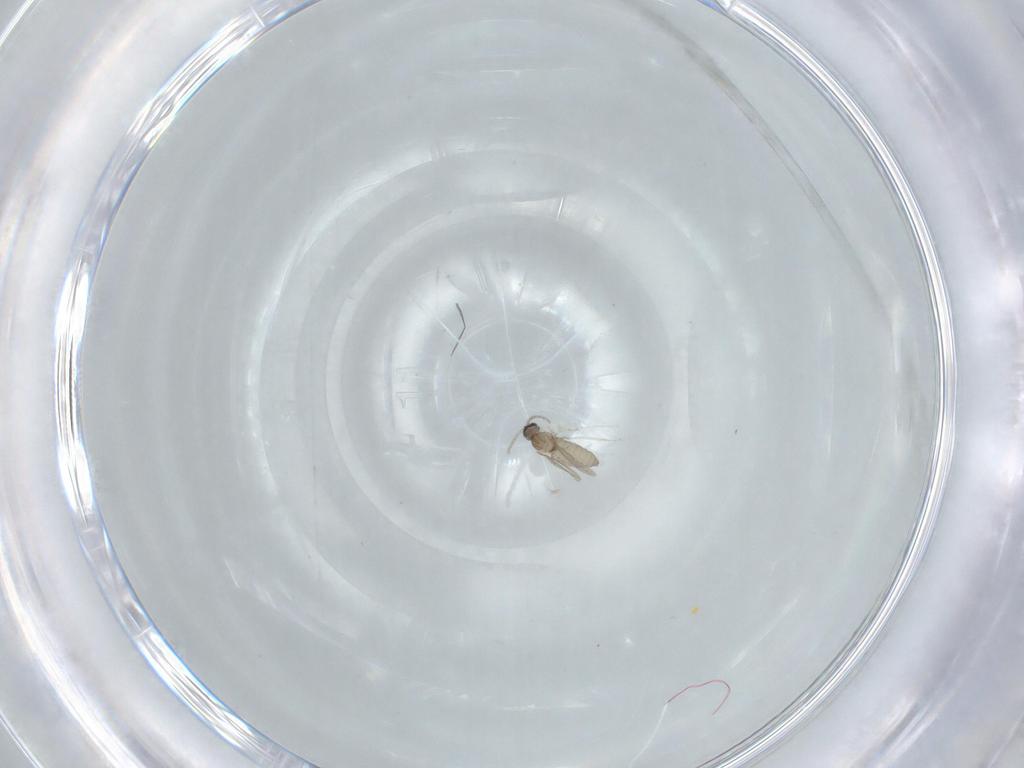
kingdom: Animalia
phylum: Arthropoda
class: Insecta
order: Diptera
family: Cecidomyiidae
